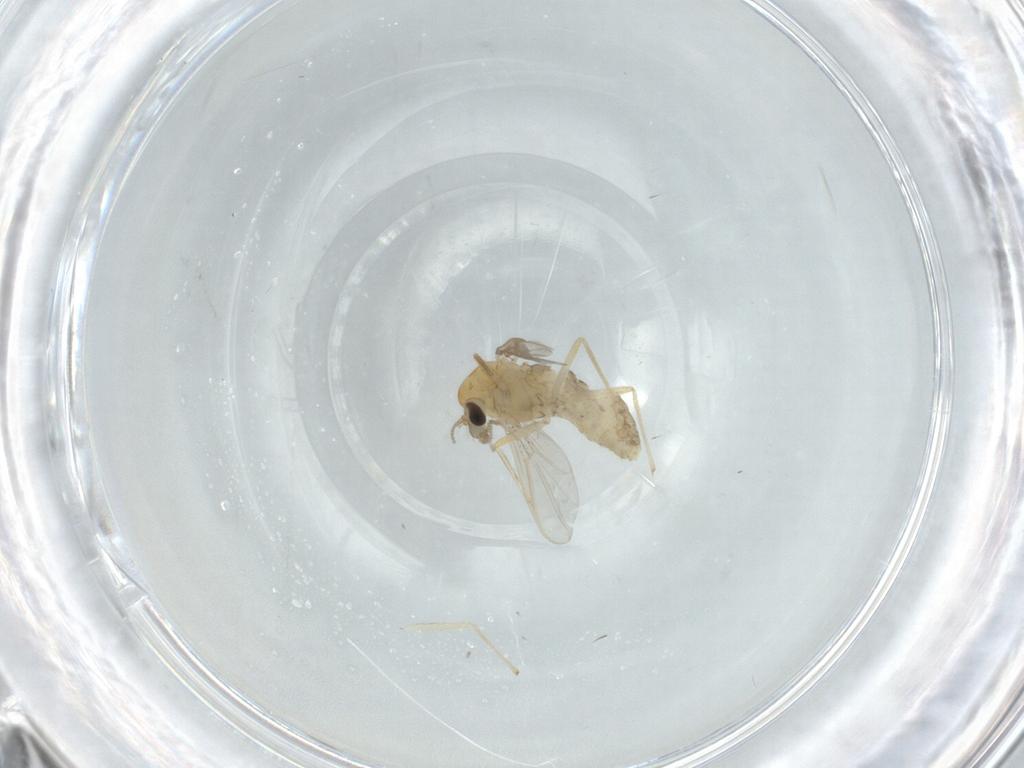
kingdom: Animalia
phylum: Arthropoda
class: Insecta
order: Diptera
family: Chironomidae
